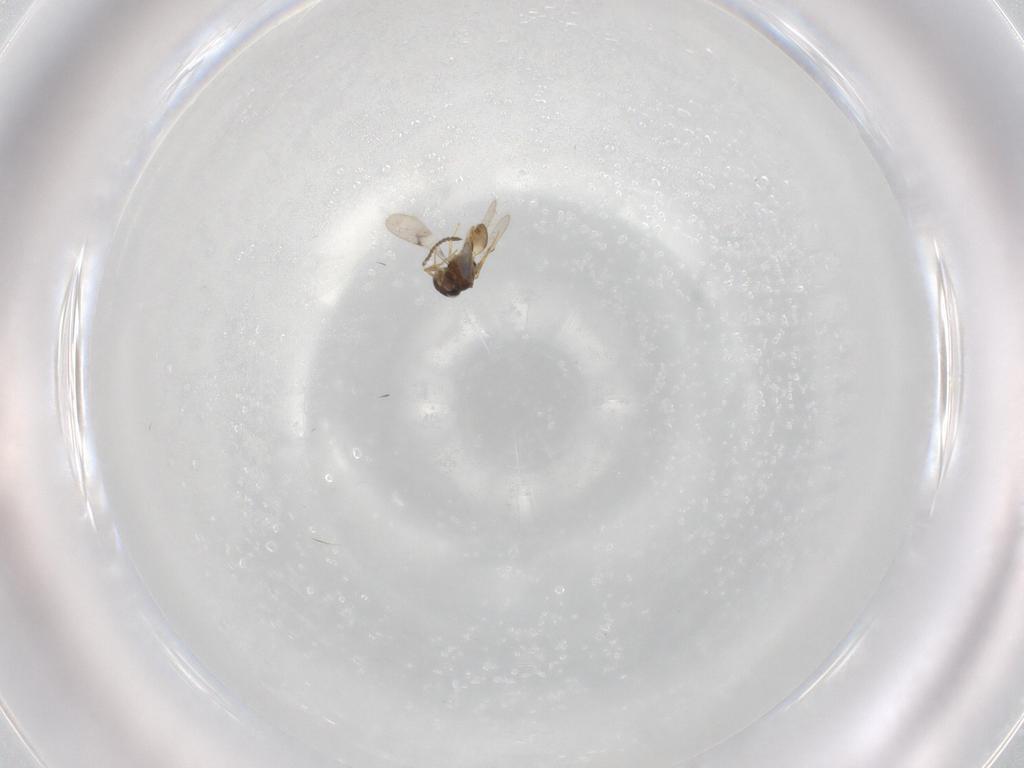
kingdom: Animalia
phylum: Arthropoda
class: Insecta
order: Hymenoptera
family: Scelionidae
